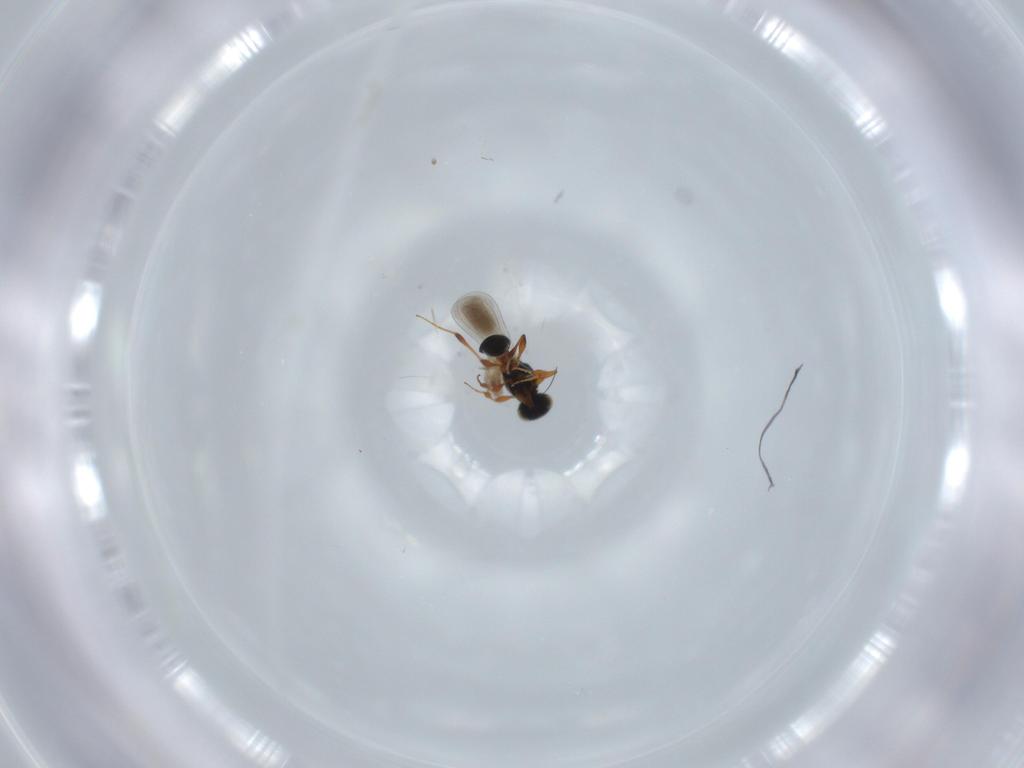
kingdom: Animalia
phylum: Arthropoda
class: Insecta
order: Hymenoptera
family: Platygastridae
